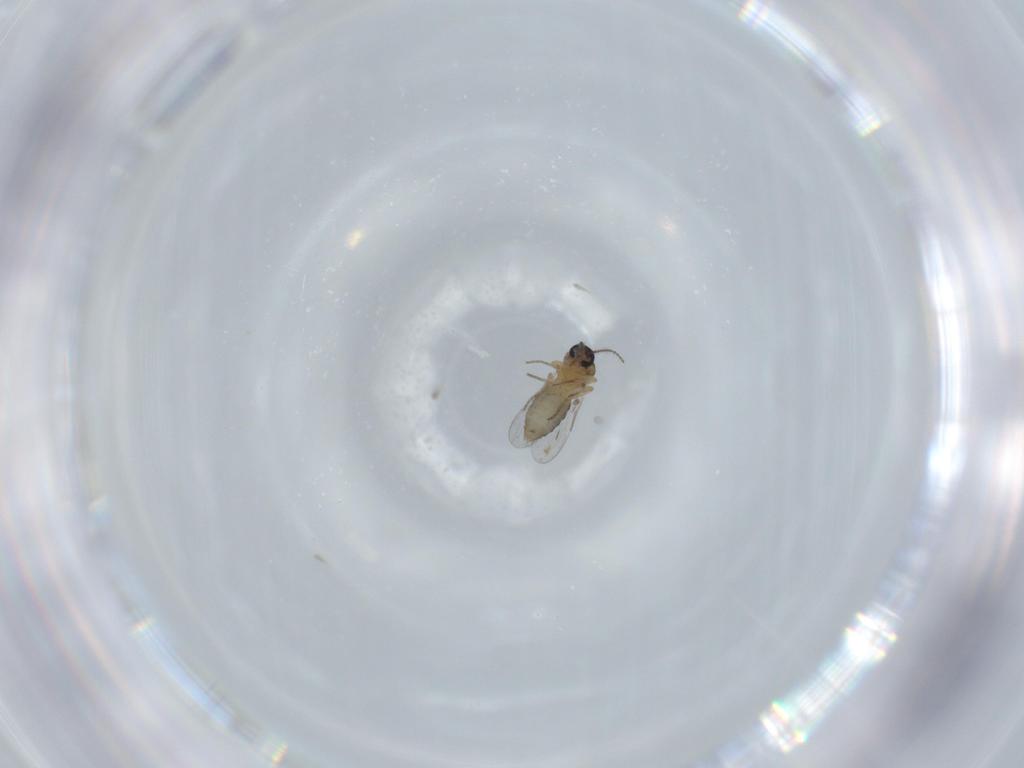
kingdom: Animalia
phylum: Arthropoda
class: Insecta
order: Diptera
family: Ceratopogonidae
